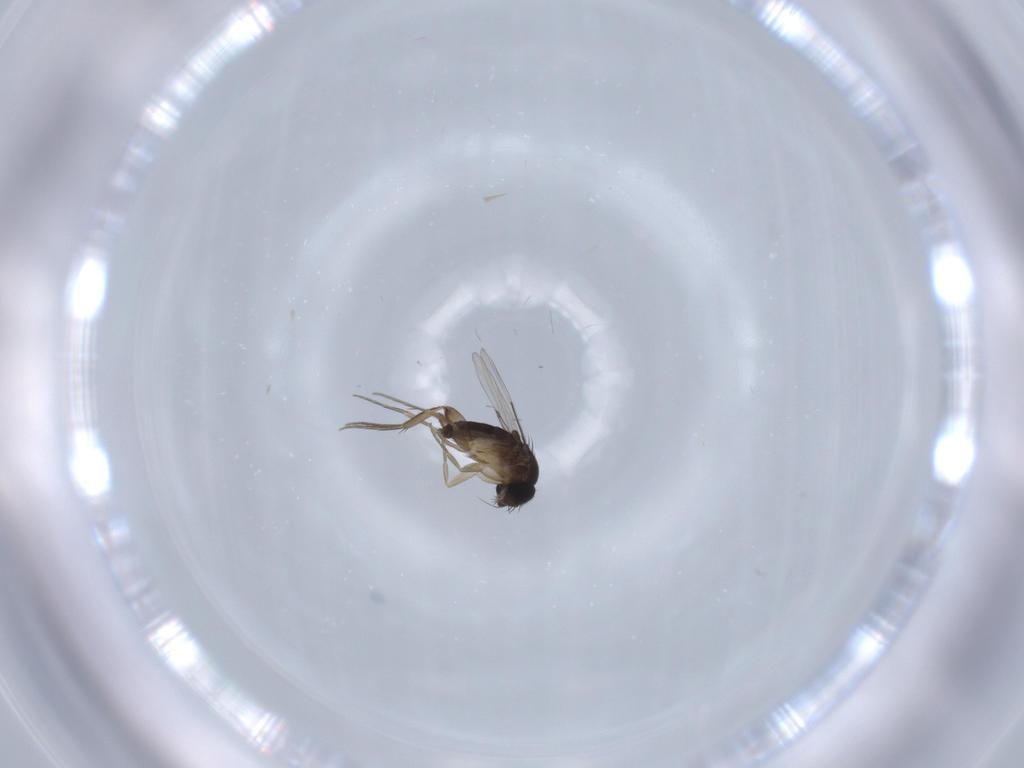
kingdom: Animalia
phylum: Arthropoda
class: Insecta
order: Diptera
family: Phoridae
